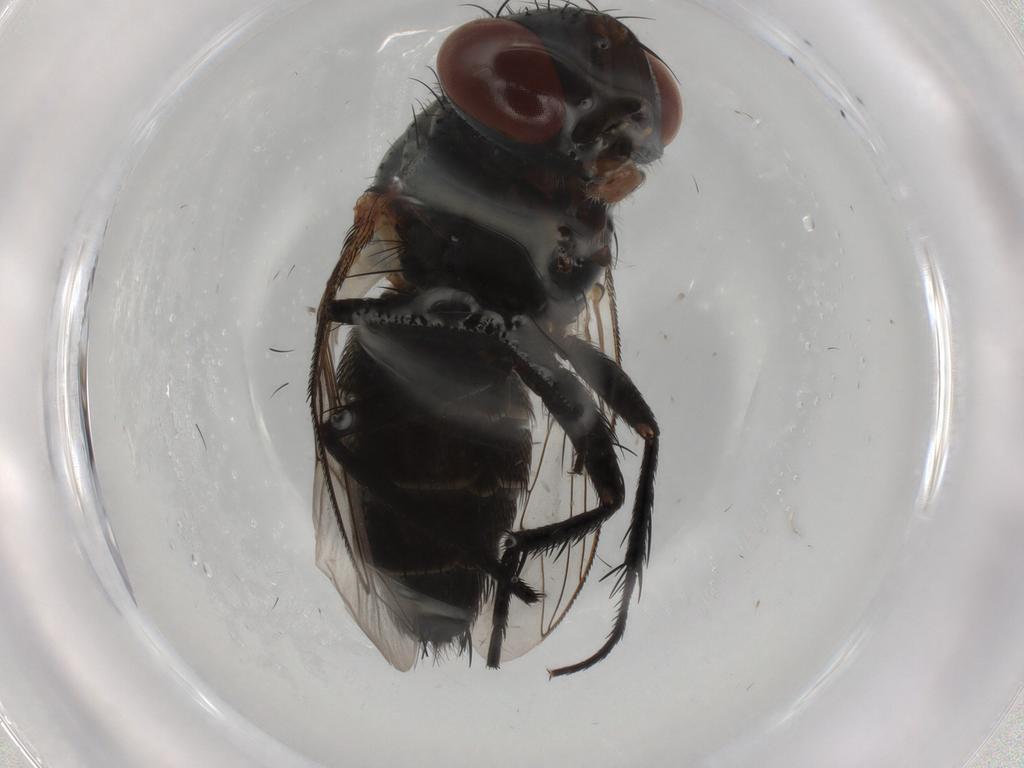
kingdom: Animalia
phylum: Arthropoda
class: Insecta
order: Diptera
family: Sarcophagidae
